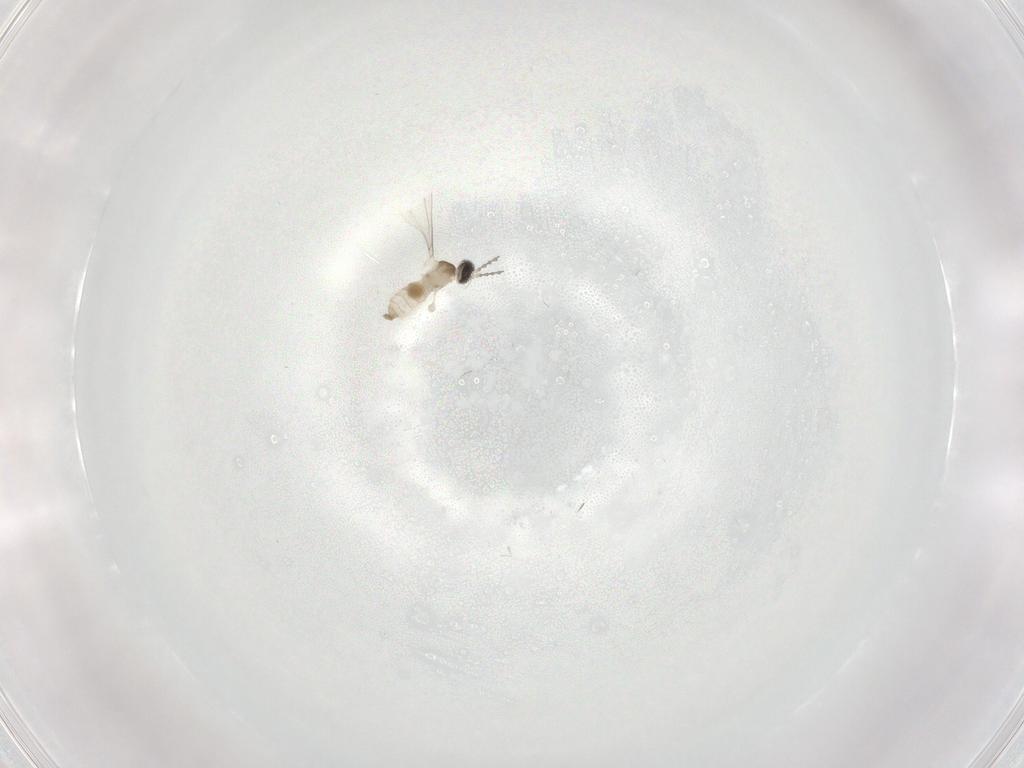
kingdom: Animalia
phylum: Arthropoda
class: Insecta
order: Diptera
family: Cecidomyiidae
